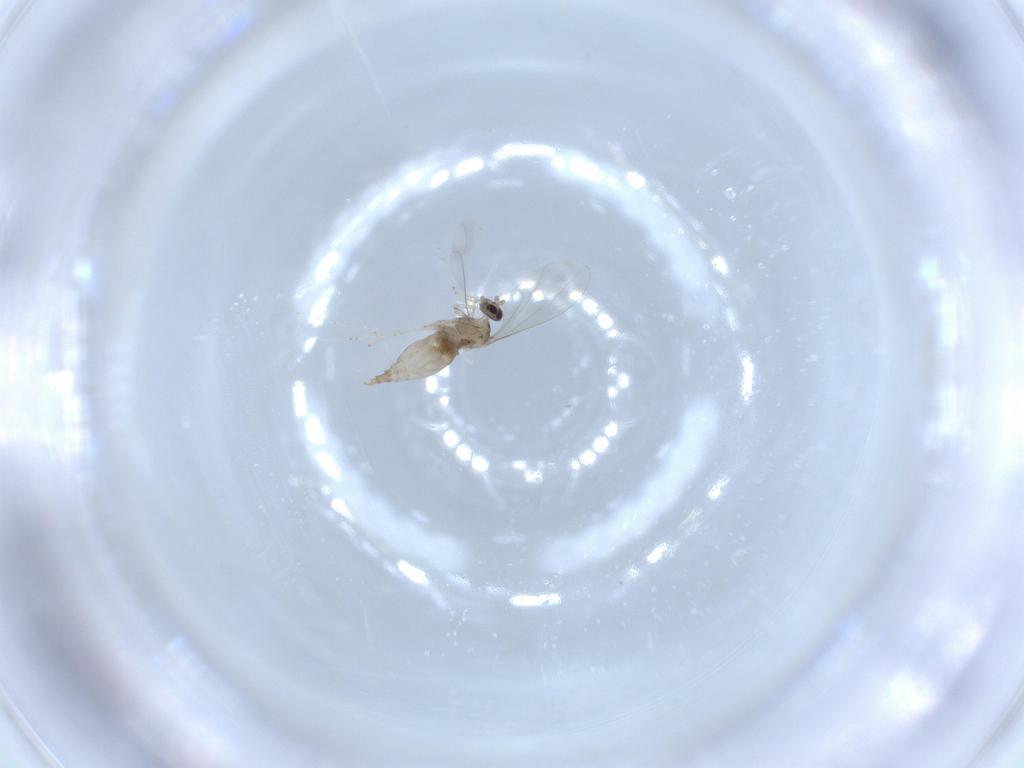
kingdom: Animalia
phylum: Arthropoda
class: Insecta
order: Diptera
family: Cecidomyiidae
